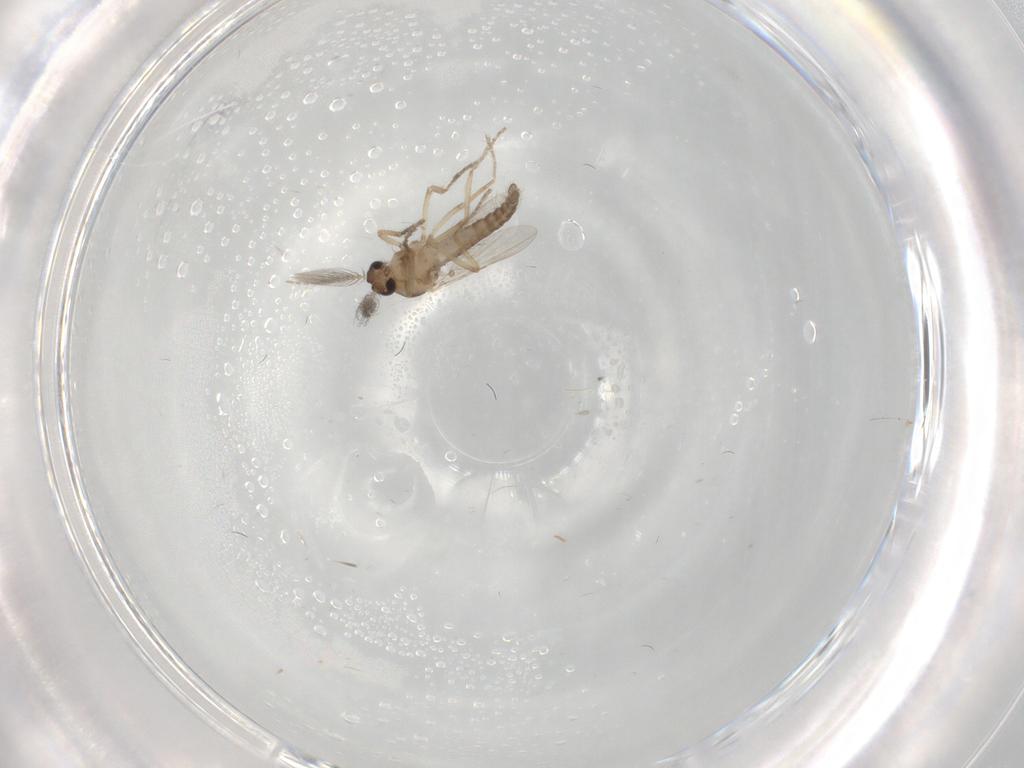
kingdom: Animalia
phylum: Arthropoda
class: Insecta
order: Diptera
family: Ceratopogonidae
